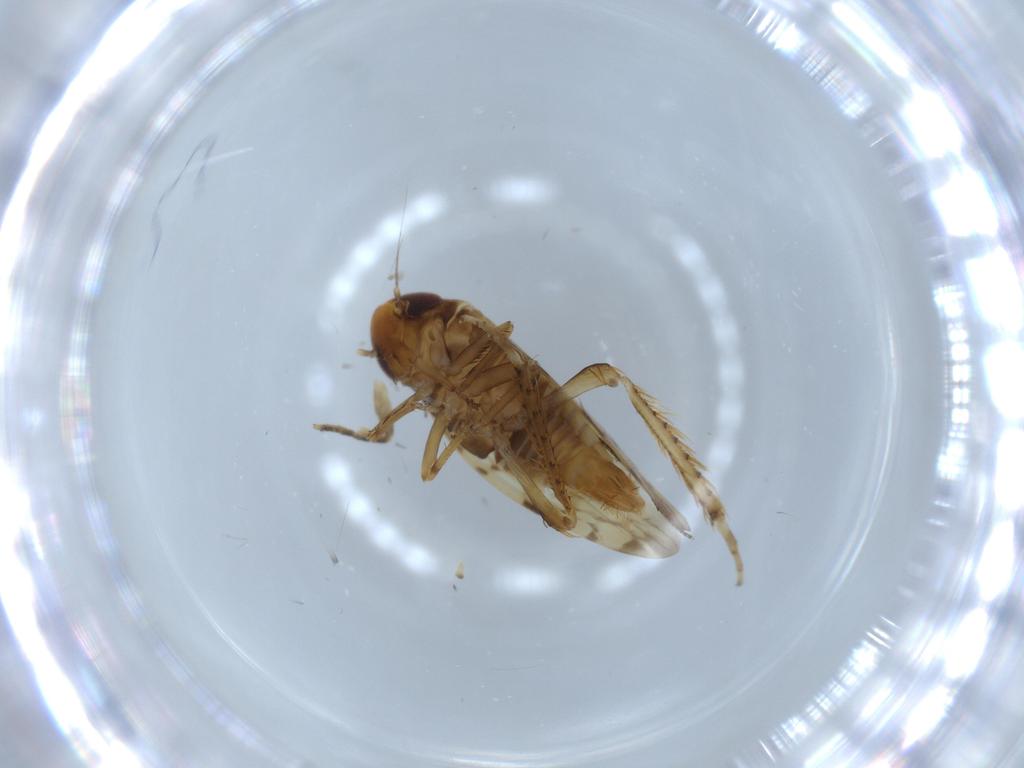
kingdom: Animalia
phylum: Arthropoda
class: Insecta
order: Hemiptera
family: Cicadellidae
